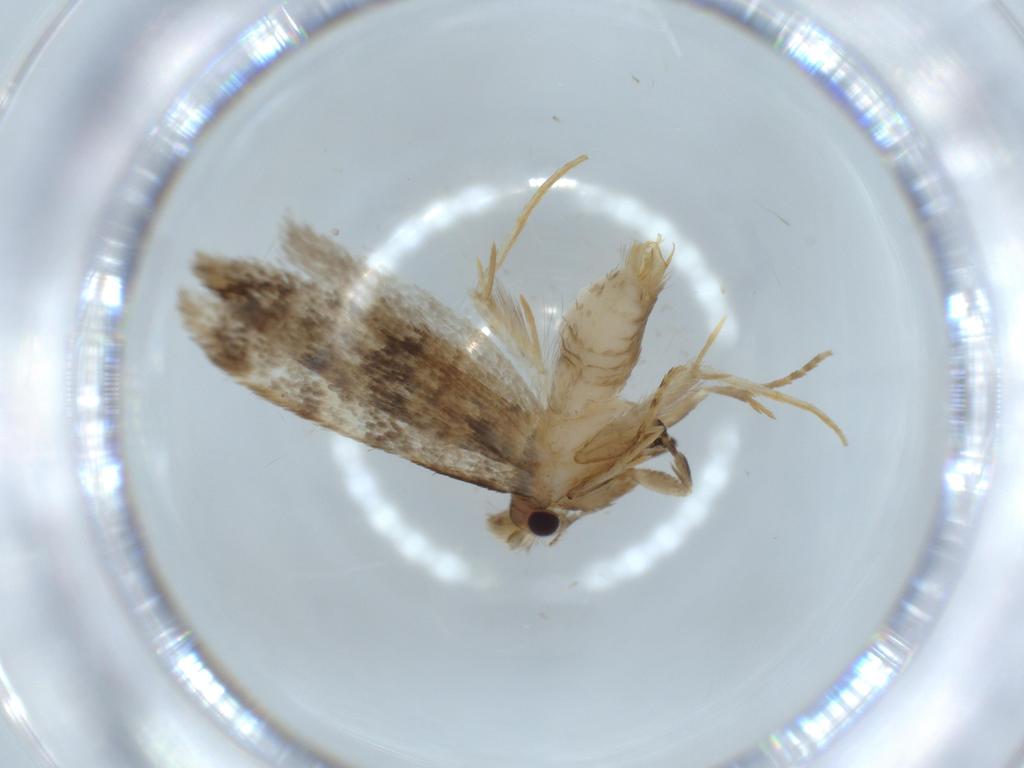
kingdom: Animalia
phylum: Arthropoda
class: Insecta
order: Lepidoptera
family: Tineidae
